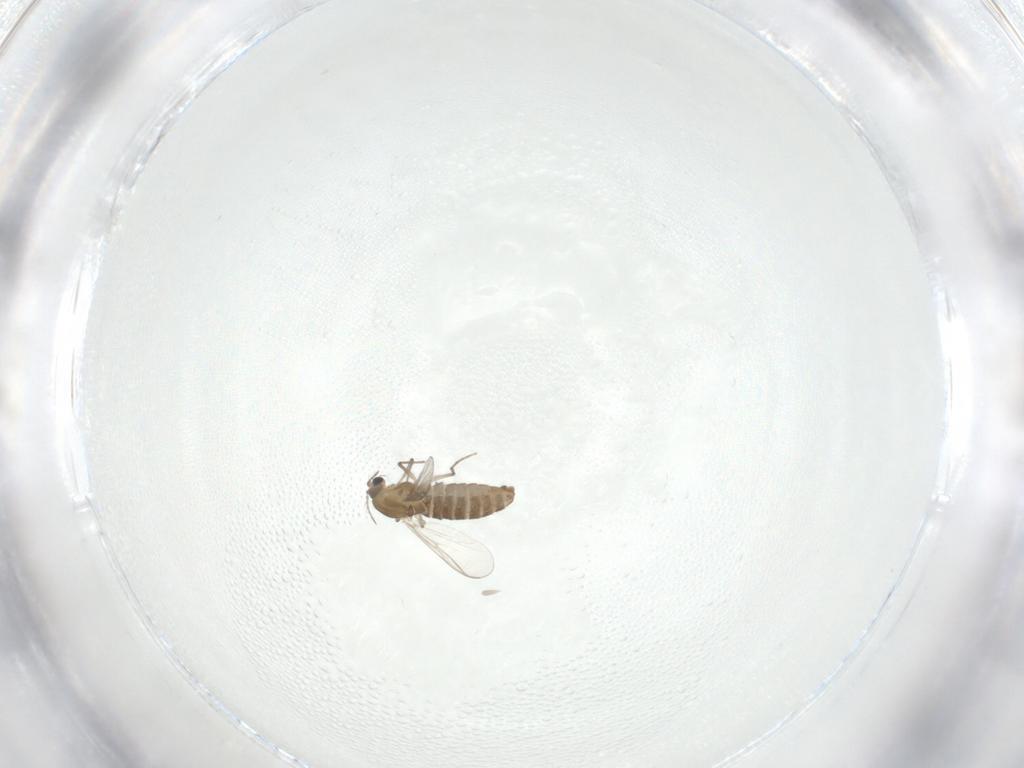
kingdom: Animalia
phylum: Arthropoda
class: Insecta
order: Diptera
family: Chironomidae
